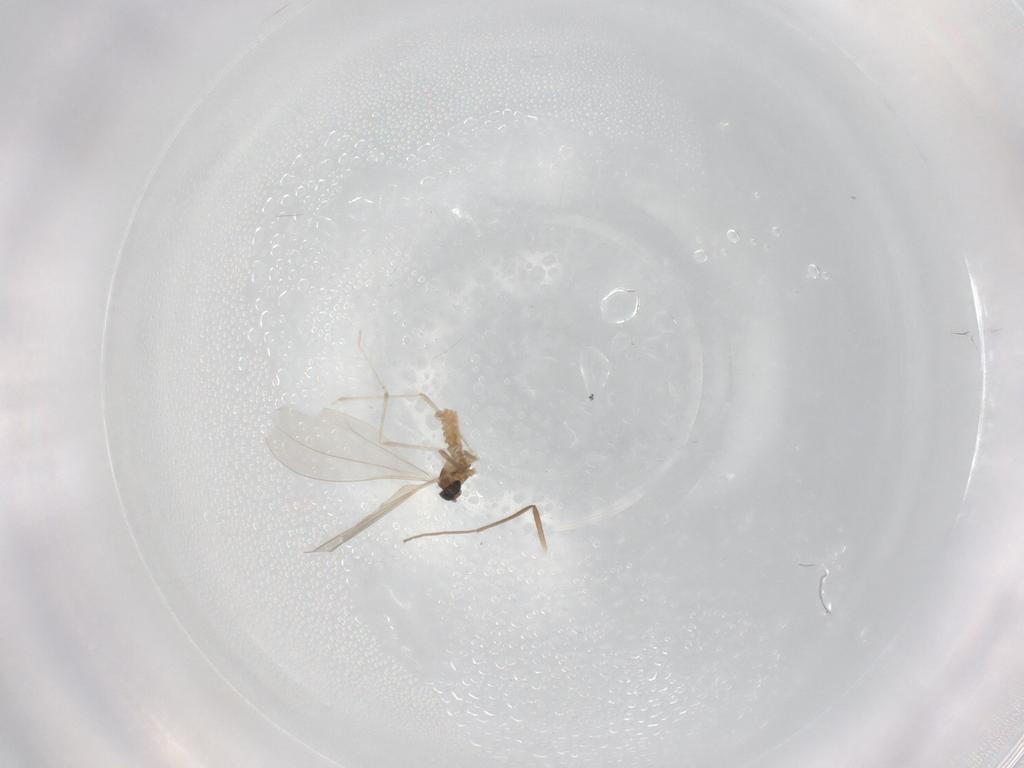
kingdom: Animalia
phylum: Arthropoda
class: Insecta
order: Diptera
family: Cecidomyiidae
